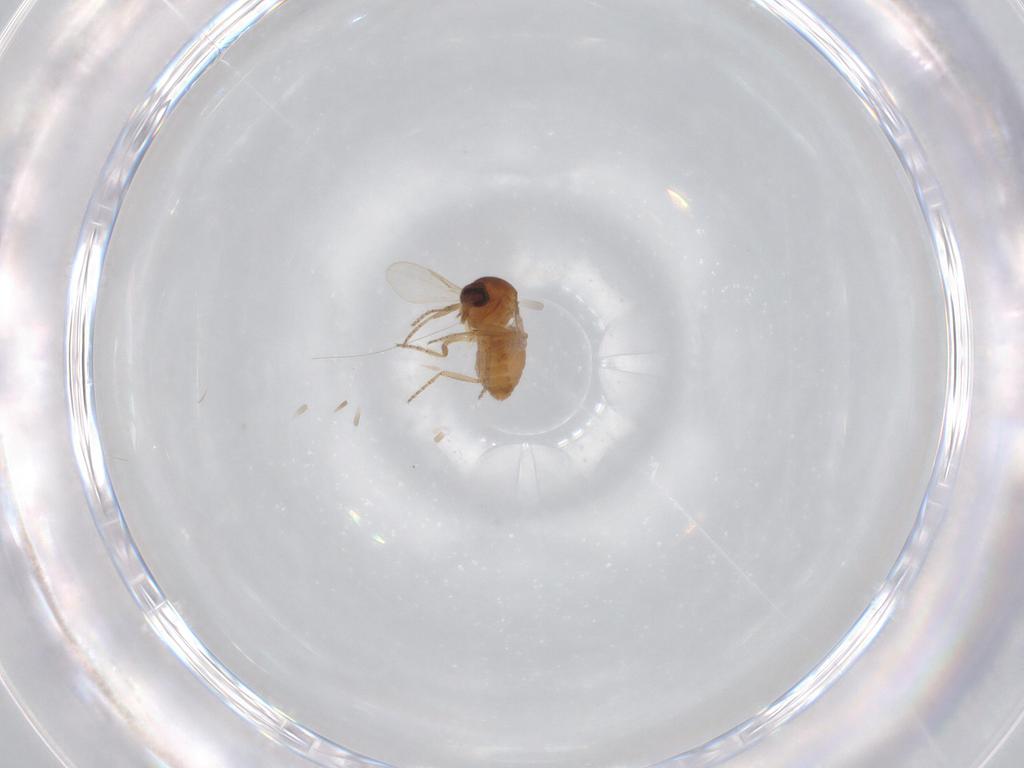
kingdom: Animalia
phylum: Arthropoda
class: Insecta
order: Diptera
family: Ceratopogonidae
